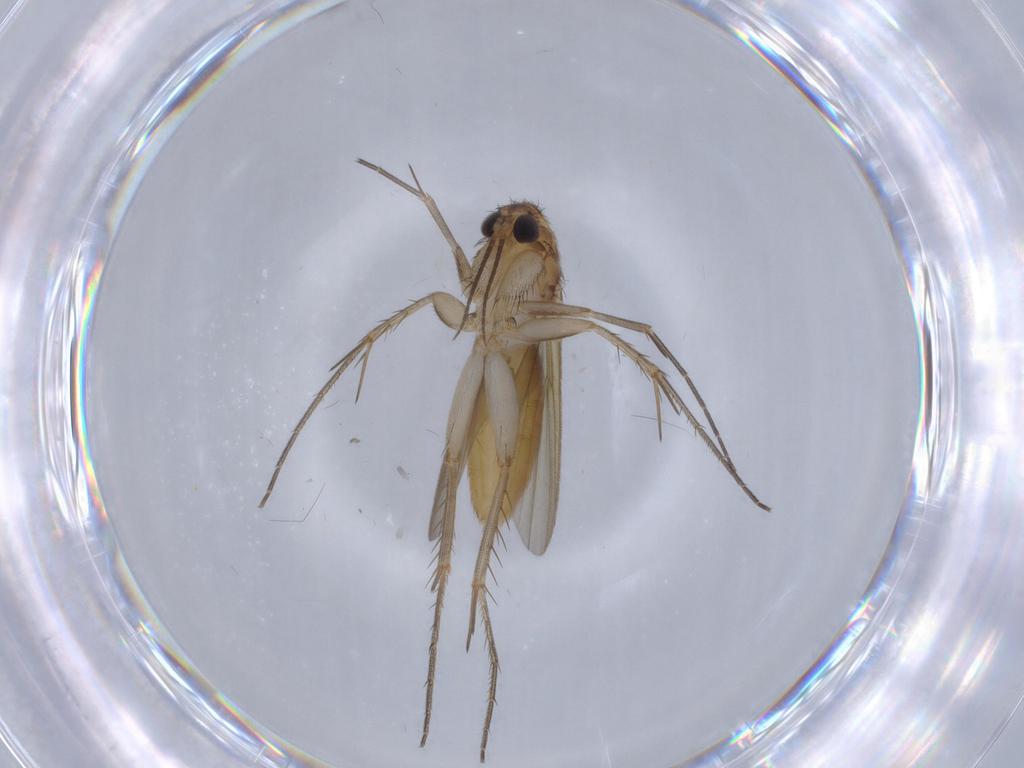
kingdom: Animalia
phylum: Arthropoda
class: Insecta
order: Diptera
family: Mycetophilidae
